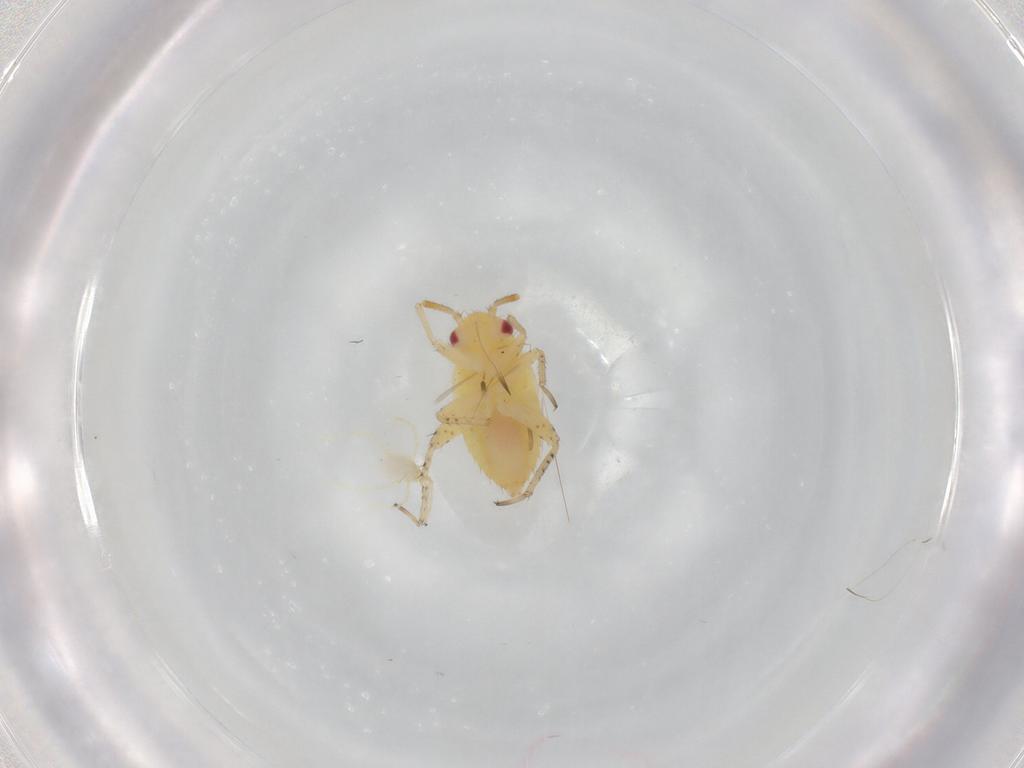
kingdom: Animalia
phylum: Arthropoda
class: Insecta
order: Hemiptera
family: Miridae
